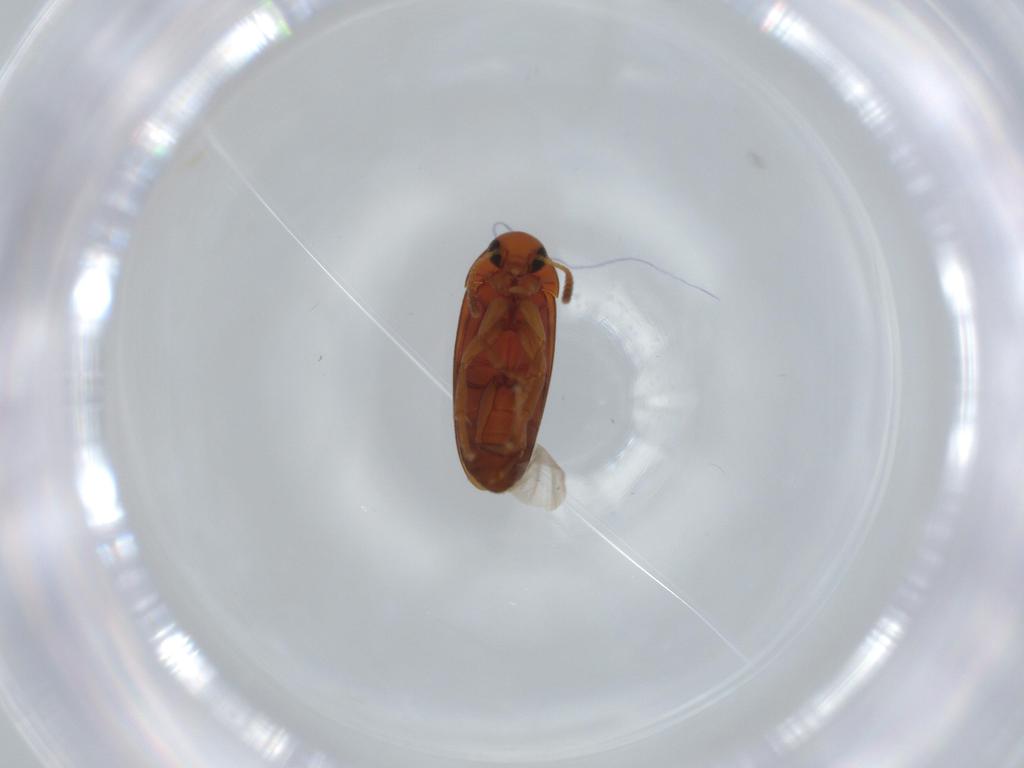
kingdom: Animalia
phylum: Arthropoda
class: Insecta
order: Coleoptera
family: Scraptiidae
